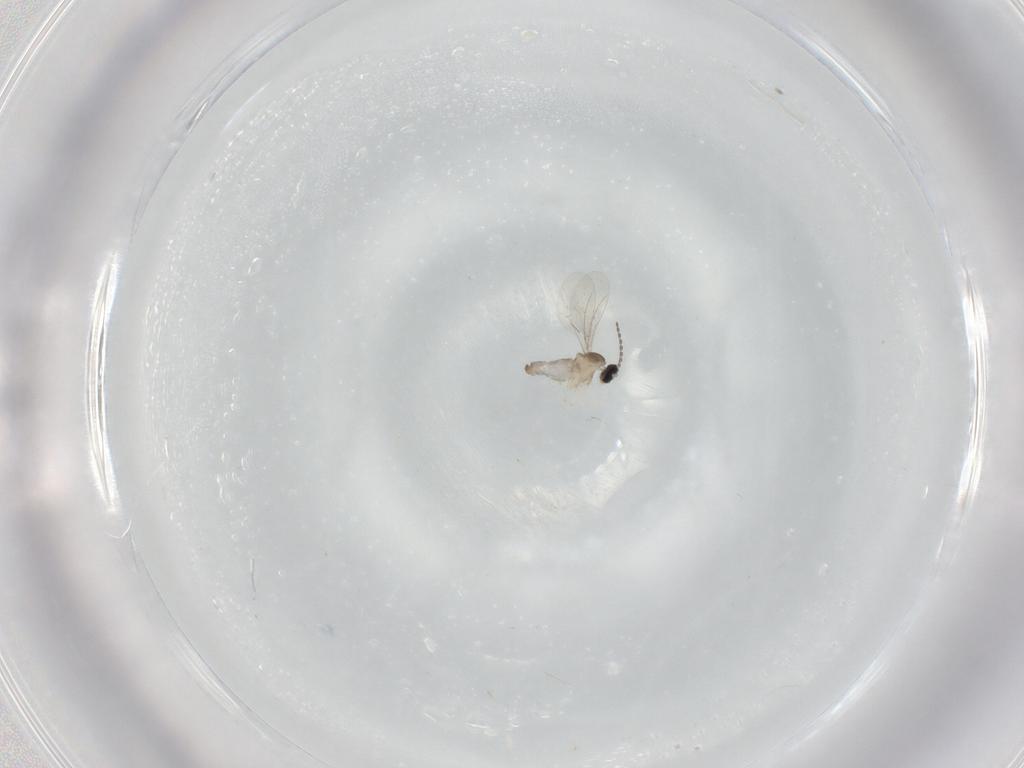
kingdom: Animalia
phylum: Arthropoda
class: Insecta
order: Diptera
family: Cecidomyiidae
